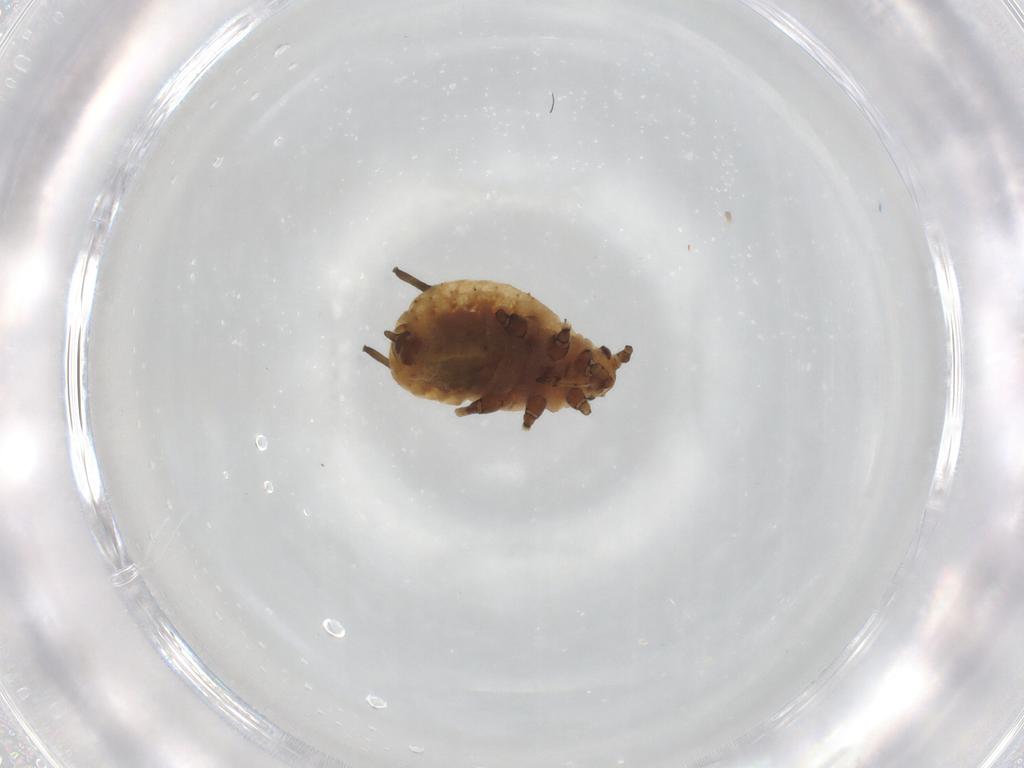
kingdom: Animalia
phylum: Arthropoda
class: Insecta
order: Hemiptera
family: Aphididae
